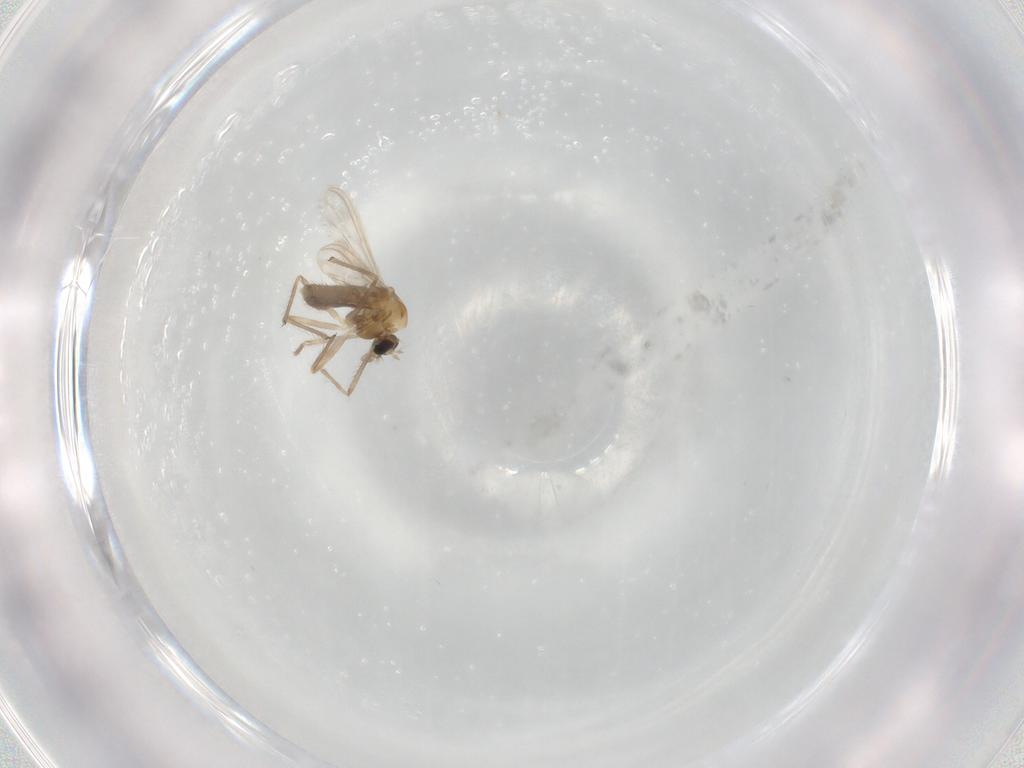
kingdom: Animalia
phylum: Arthropoda
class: Insecta
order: Diptera
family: Chironomidae
